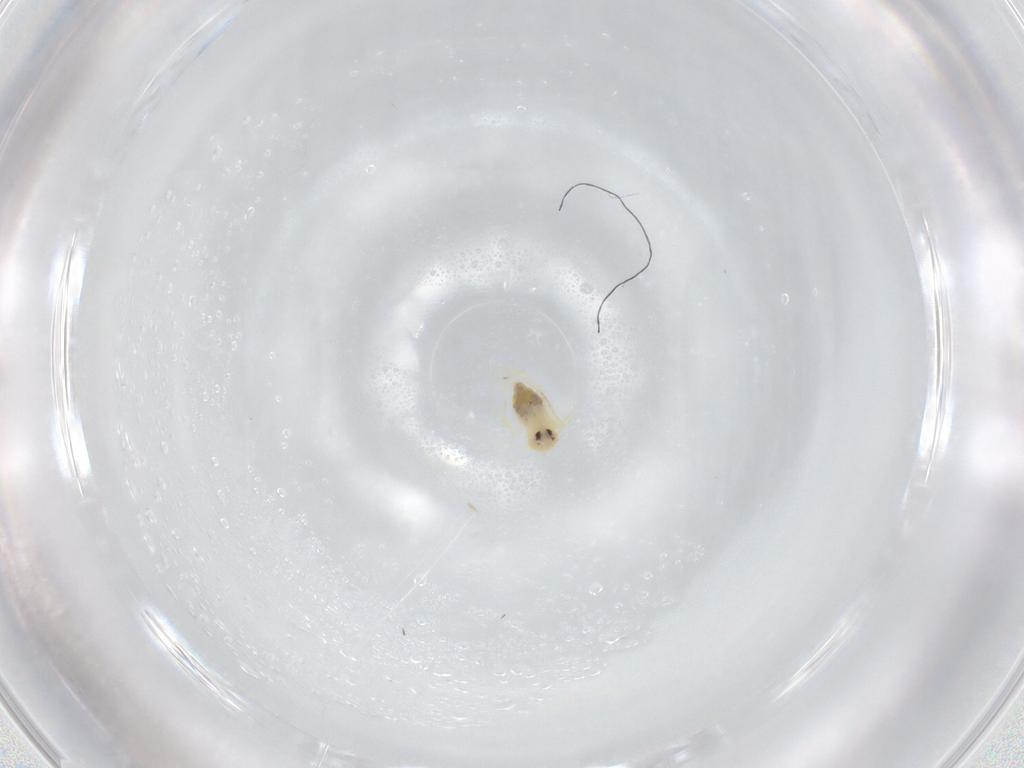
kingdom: Animalia
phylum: Arthropoda
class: Insecta
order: Hemiptera
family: Aleyrodidae
